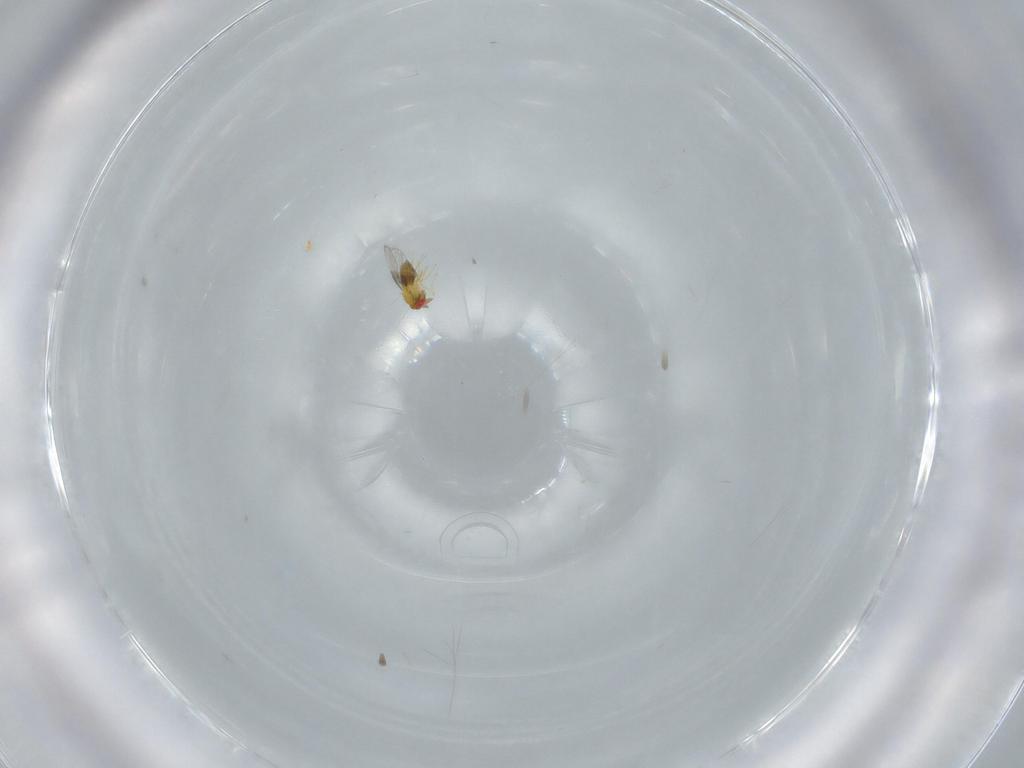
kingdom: Animalia
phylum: Arthropoda
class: Insecta
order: Hymenoptera
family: Trichogrammatidae
